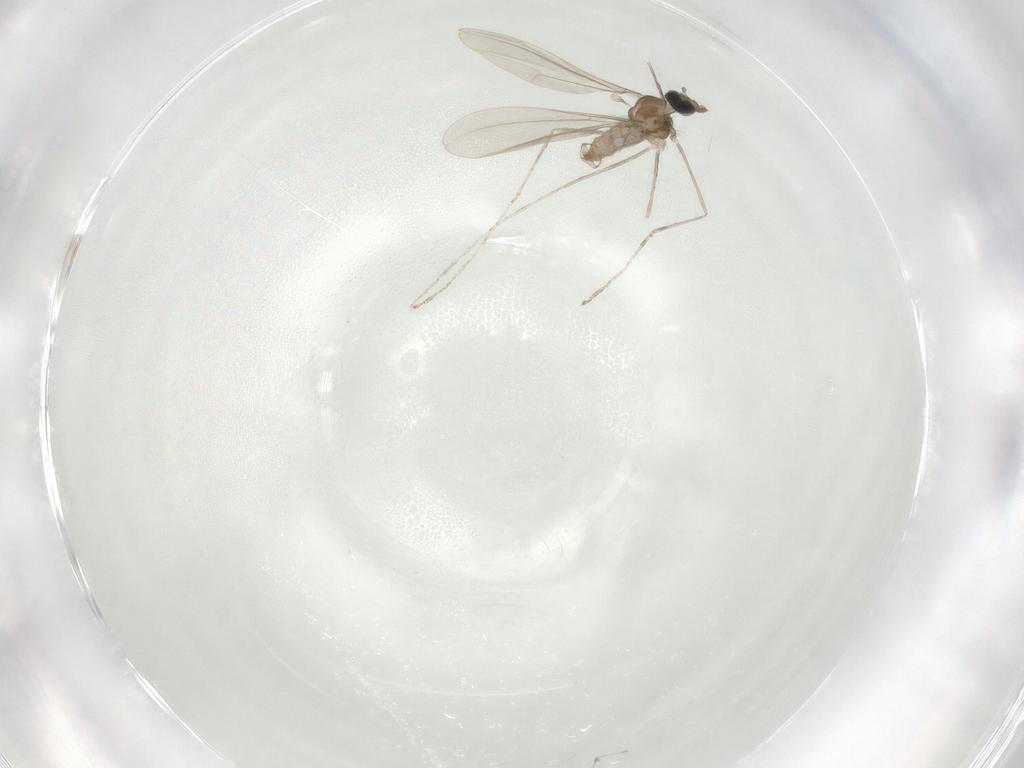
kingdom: Animalia
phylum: Arthropoda
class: Insecta
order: Diptera
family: Cecidomyiidae
